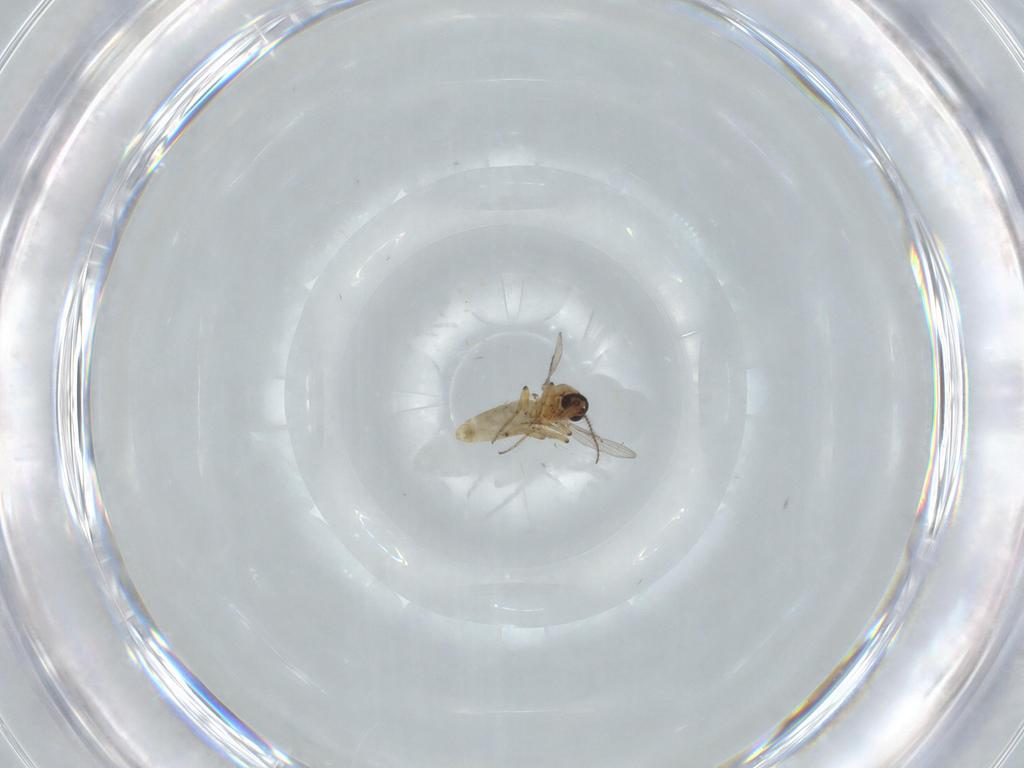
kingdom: Animalia
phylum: Arthropoda
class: Insecta
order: Diptera
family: Ceratopogonidae
